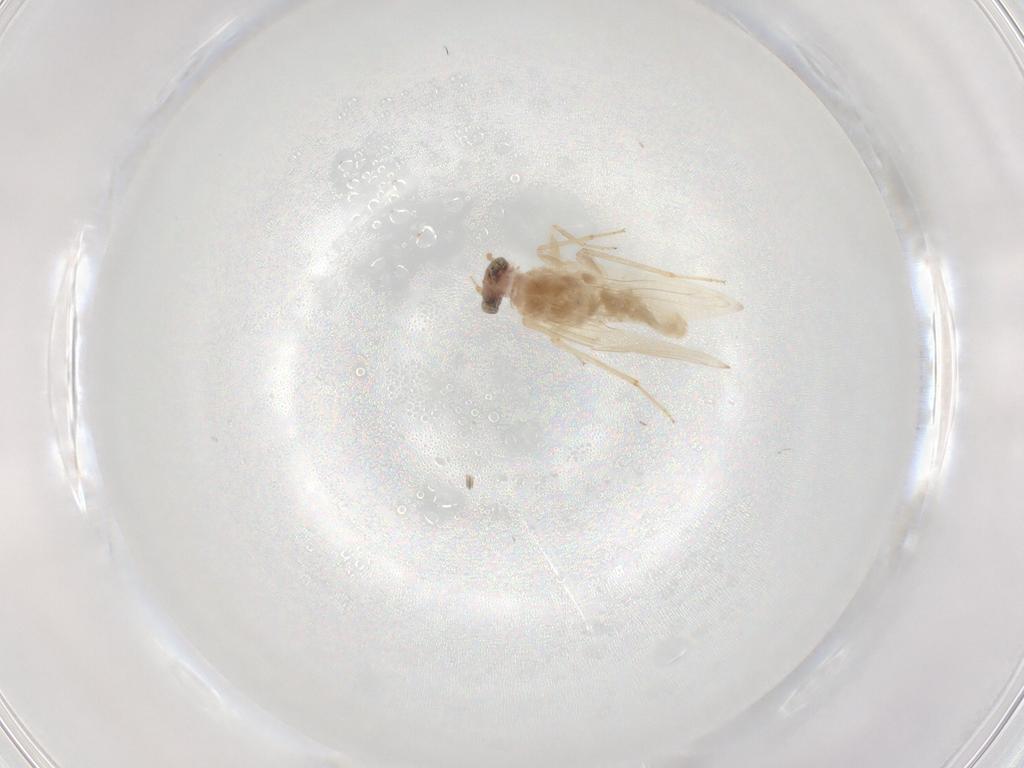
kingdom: Animalia
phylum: Arthropoda
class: Insecta
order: Psocodea
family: Lepidopsocidae
